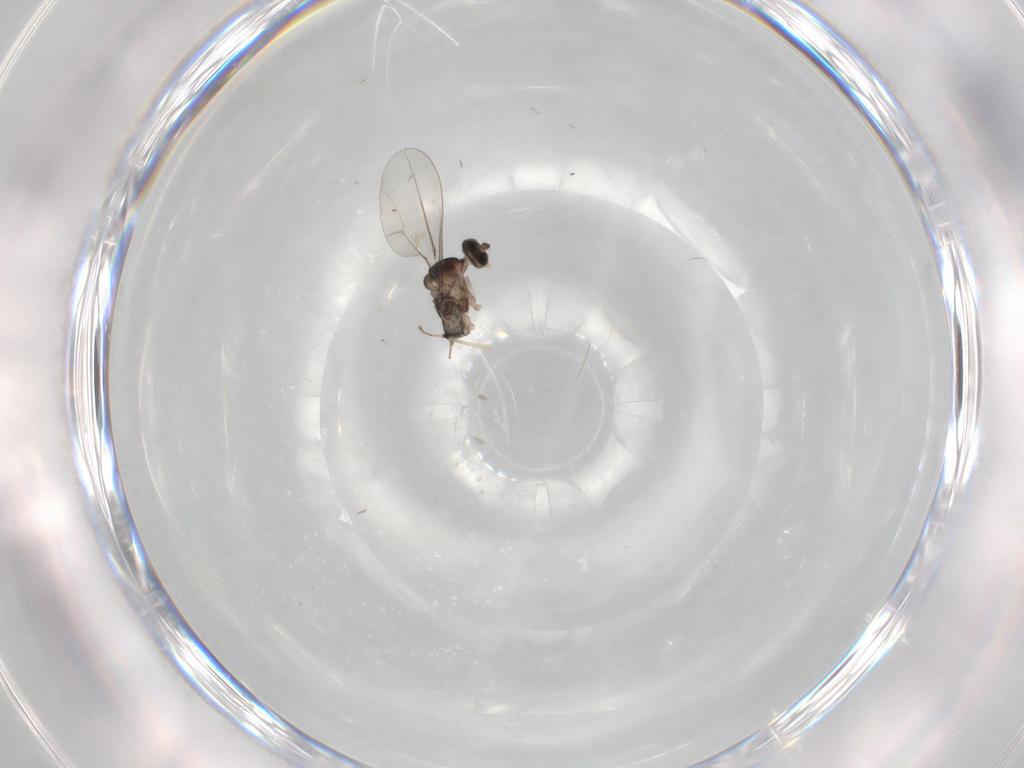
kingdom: Animalia
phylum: Arthropoda
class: Insecta
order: Diptera
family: Cecidomyiidae
